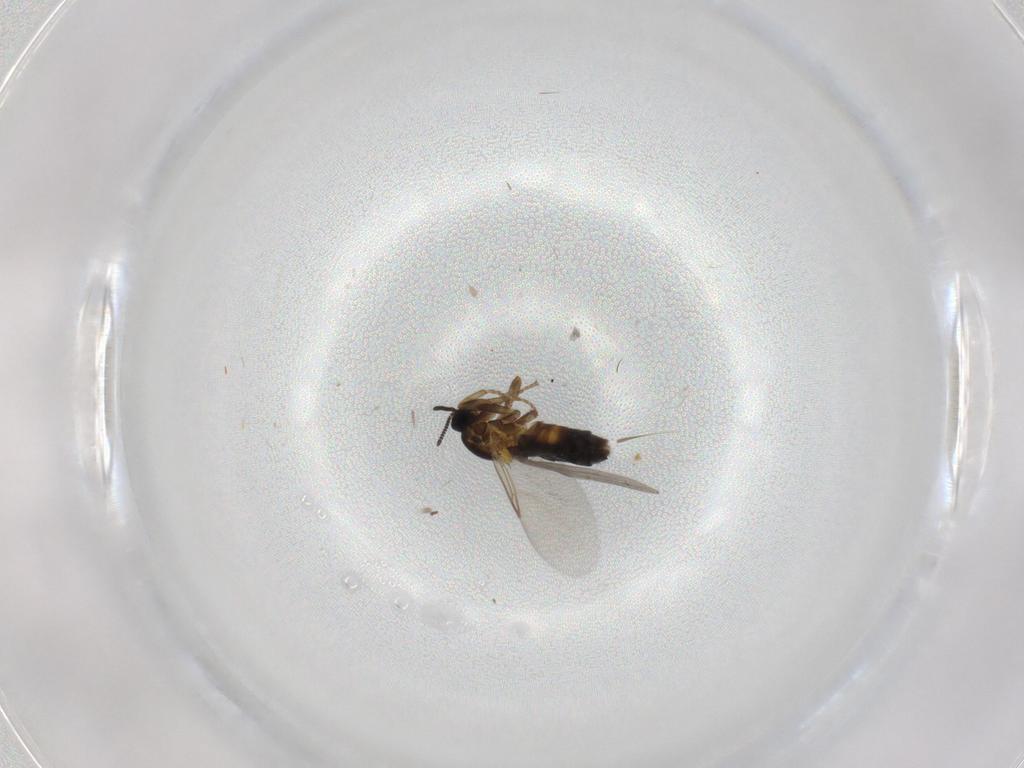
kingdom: Animalia
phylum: Arthropoda
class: Insecta
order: Diptera
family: Scatopsidae
